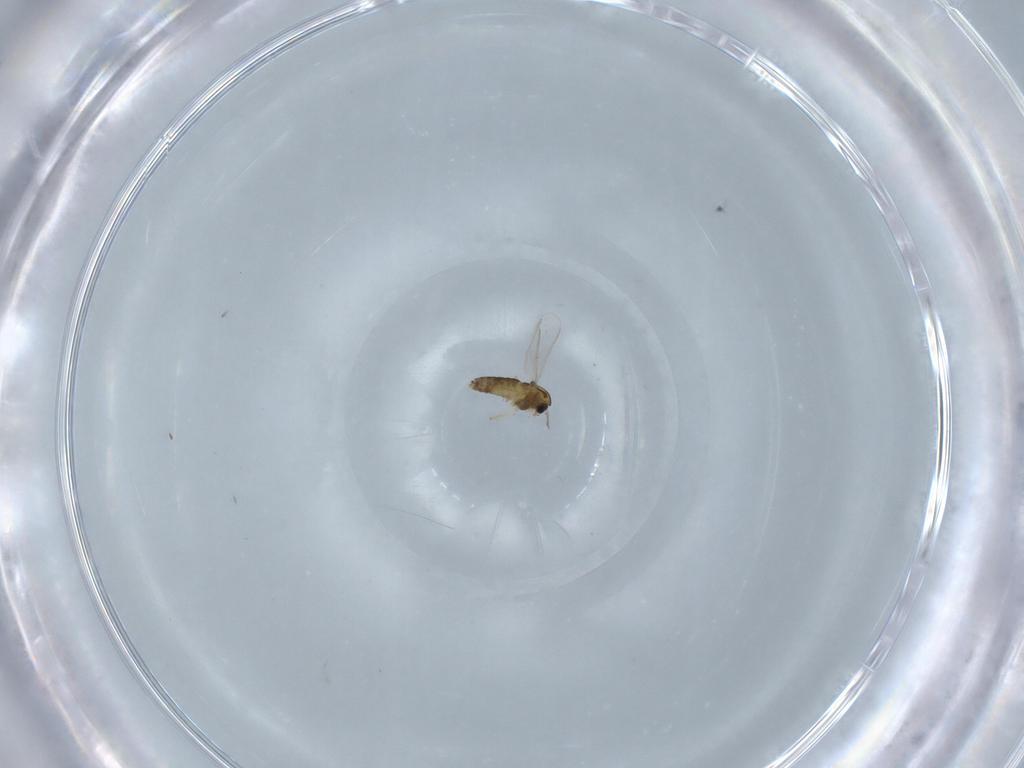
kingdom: Animalia
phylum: Arthropoda
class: Insecta
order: Diptera
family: Chironomidae
